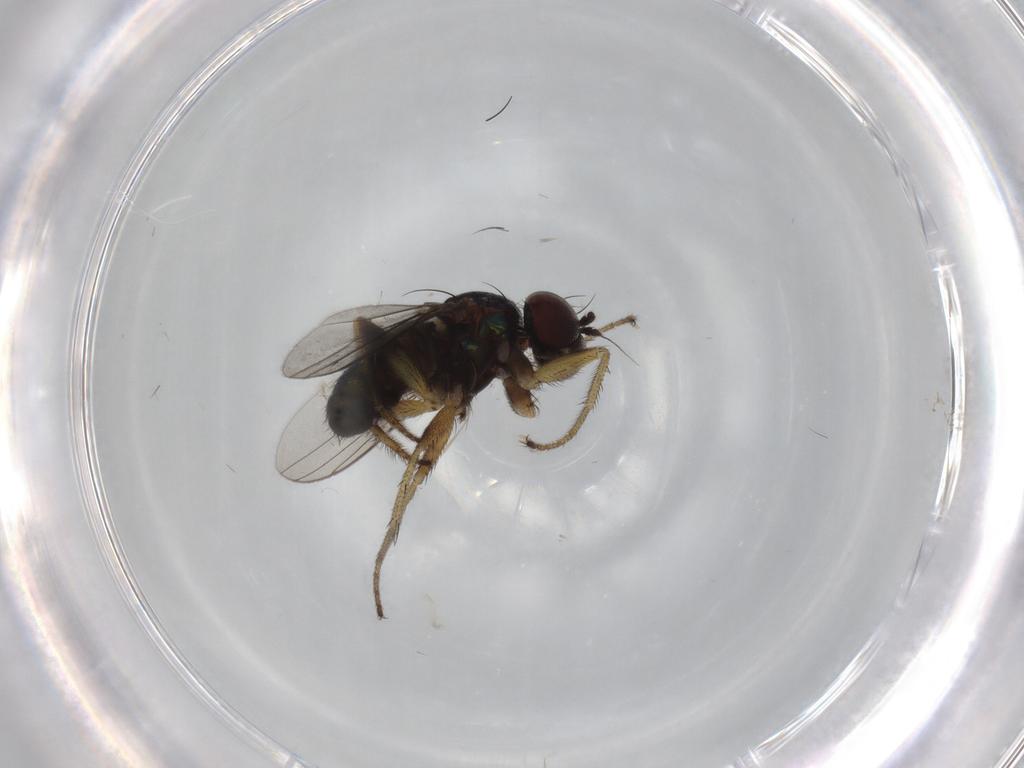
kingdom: Animalia
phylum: Arthropoda
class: Insecta
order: Diptera
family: Dolichopodidae
